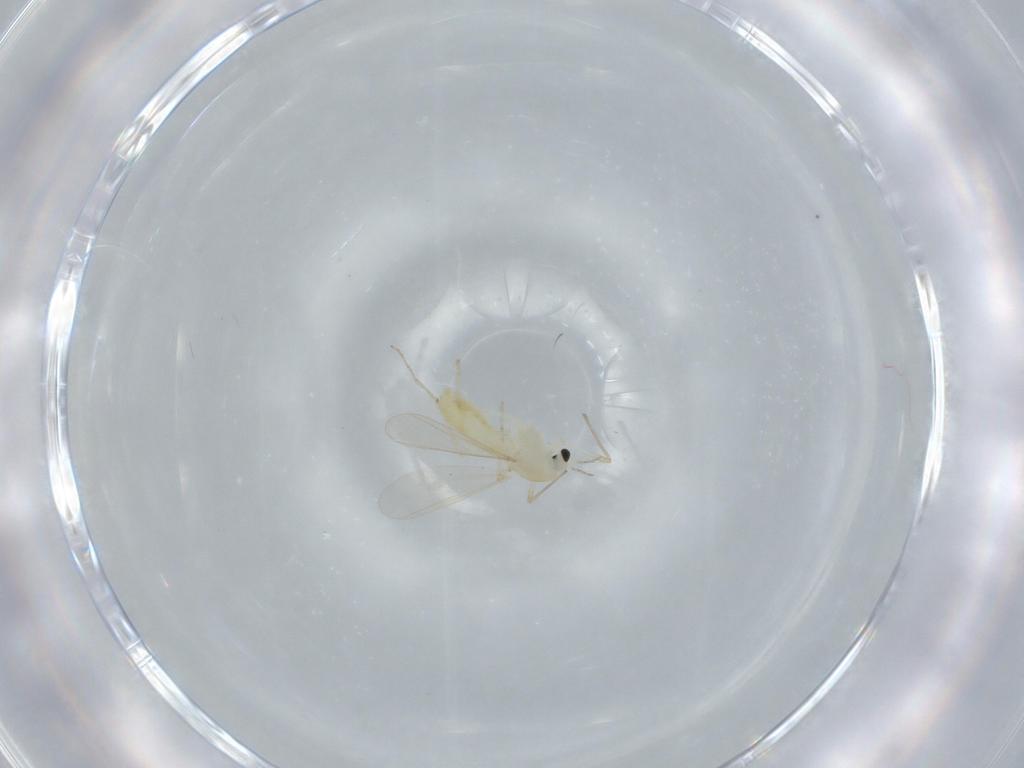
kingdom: Animalia
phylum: Arthropoda
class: Insecta
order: Diptera
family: Chironomidae
